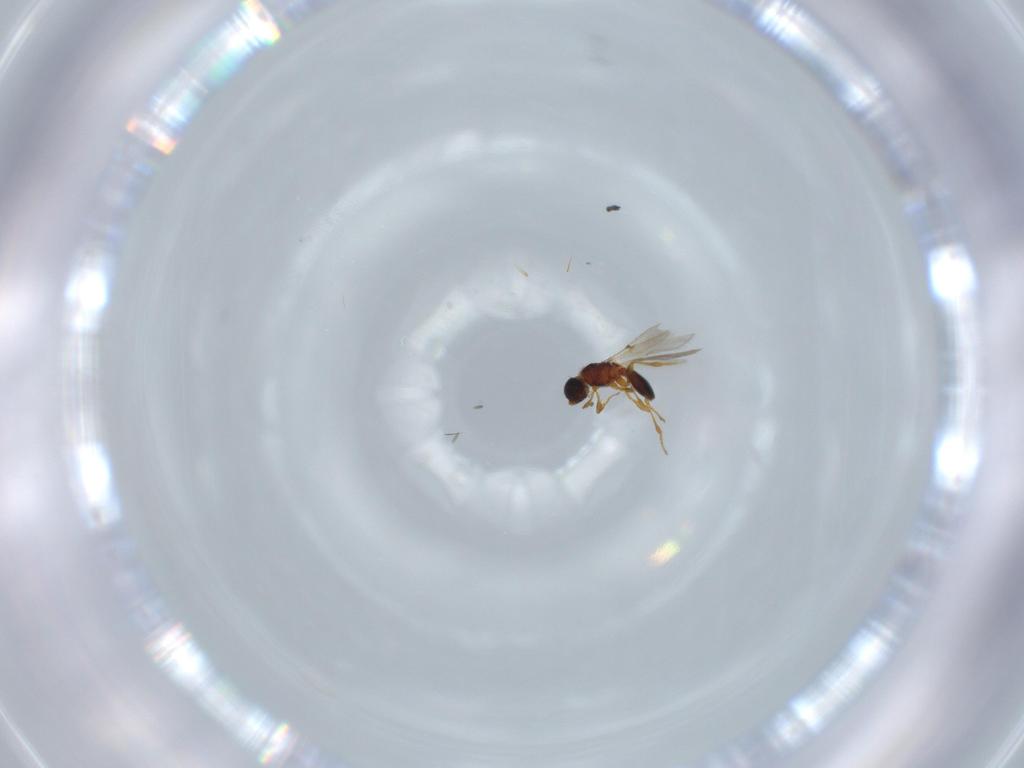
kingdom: Animalia
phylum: Arthropoda
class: Insecta
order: Hymenoptera
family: Diapriidae
